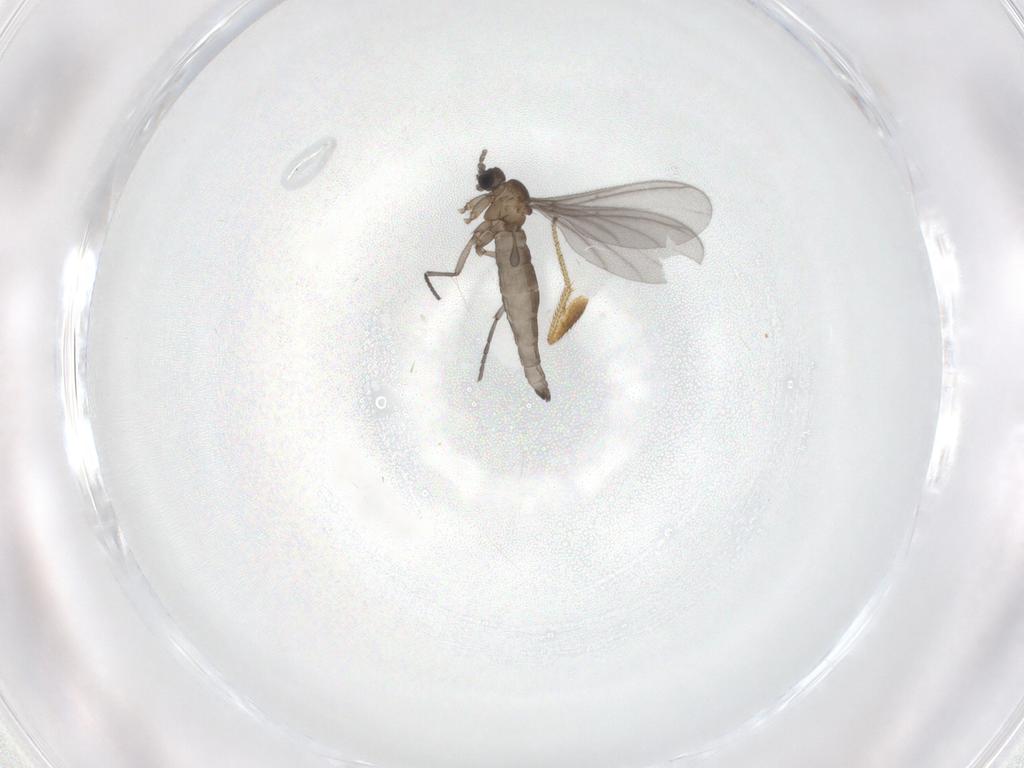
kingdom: Animalia
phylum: Arthropoda
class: Insecta
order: Diptera
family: Sciaridae
